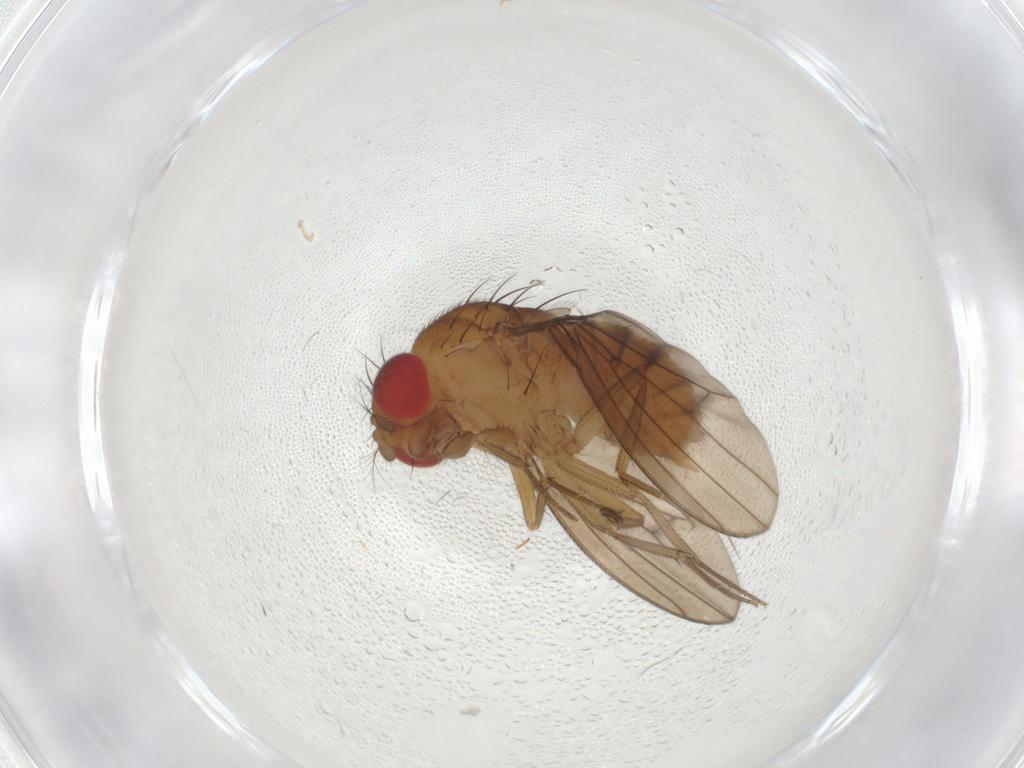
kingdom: Animalia
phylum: Arthropoda
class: Insecta
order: Diptera
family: Drosophilidae
